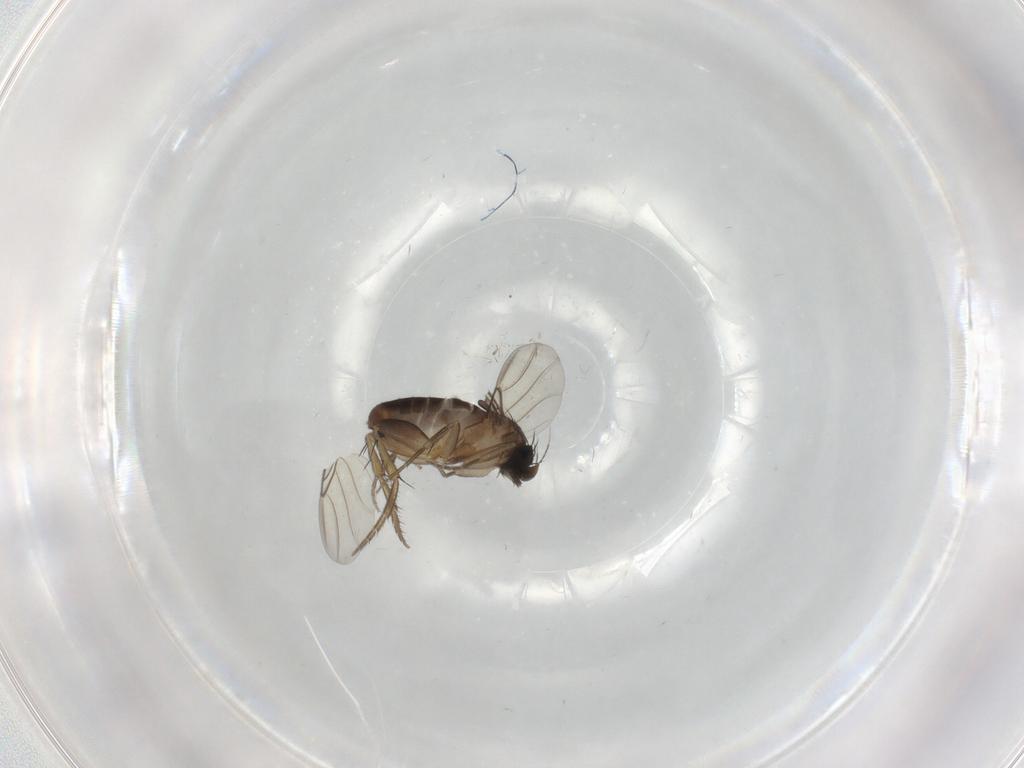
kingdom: Animalia
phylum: Arthropoda
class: Insecta
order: Diptera
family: Phoridae
